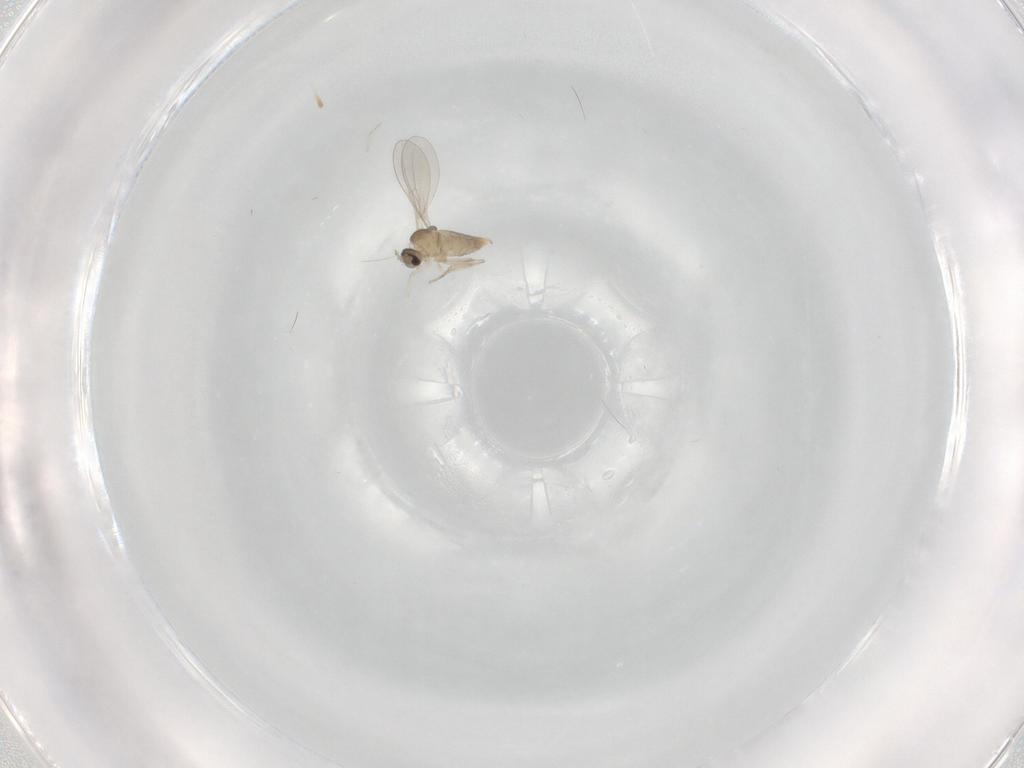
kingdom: Animalia
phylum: Arthropoda
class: Insecta
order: Diptera
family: Cecidomyiidae
